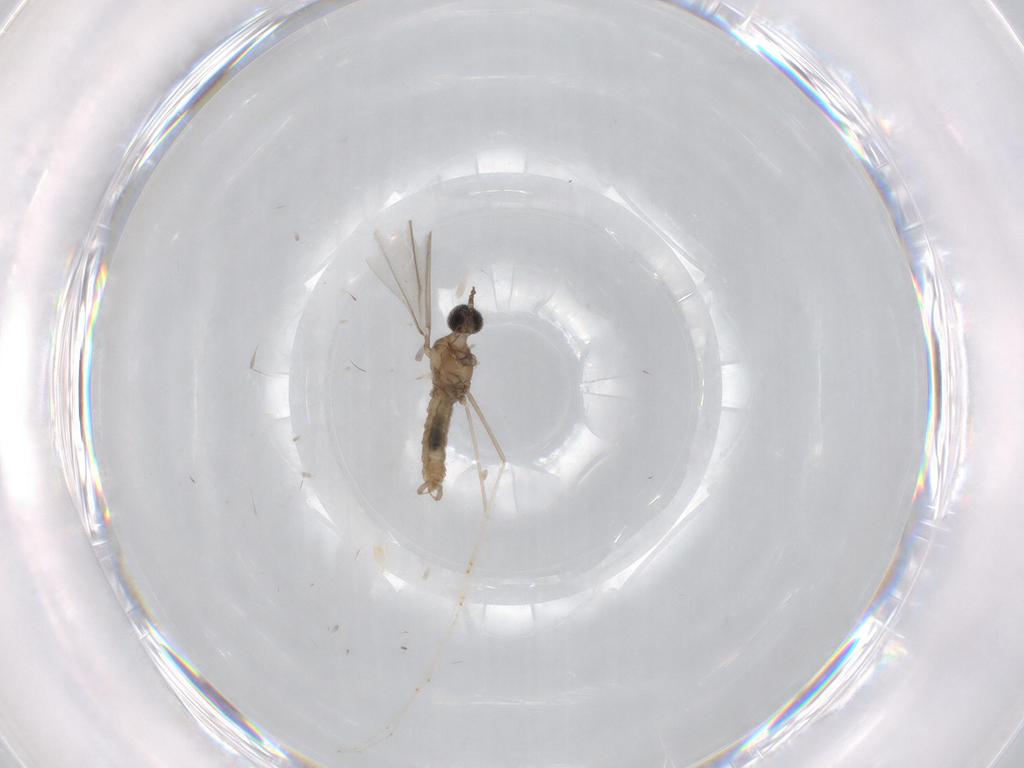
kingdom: Animalia
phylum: Arthropoda
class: Insecta
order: Diptera
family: Cecidomyiidae
